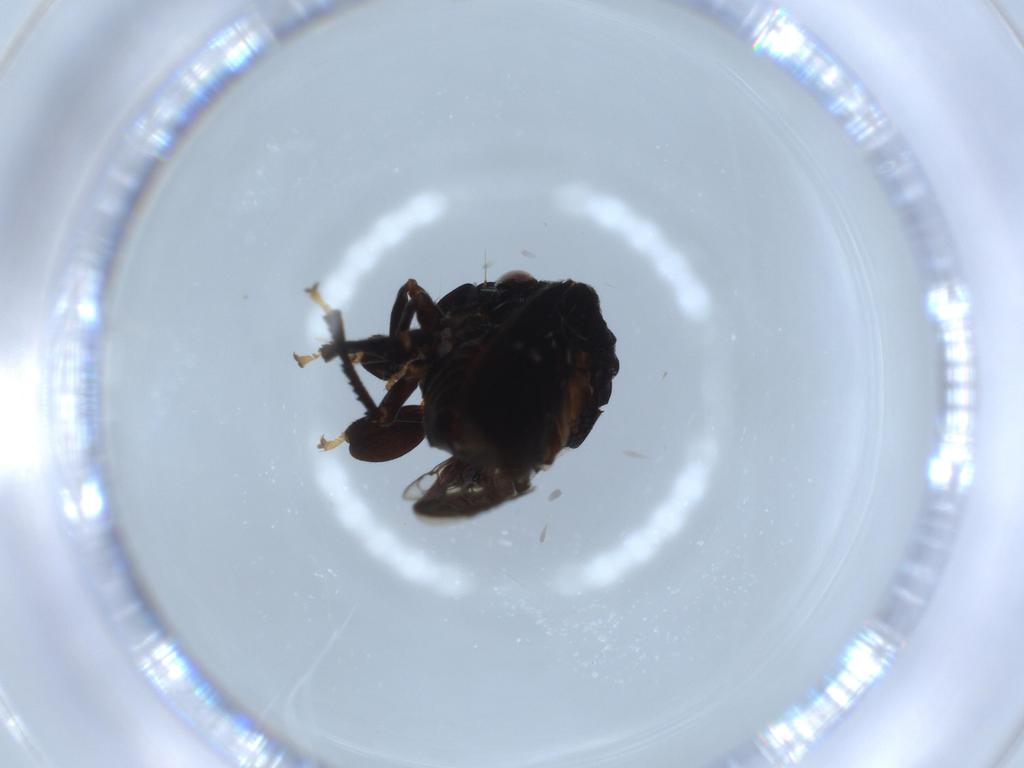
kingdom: Animalia
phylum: Arthropoda
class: Insecta
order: Hemiptera
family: Membracidae
